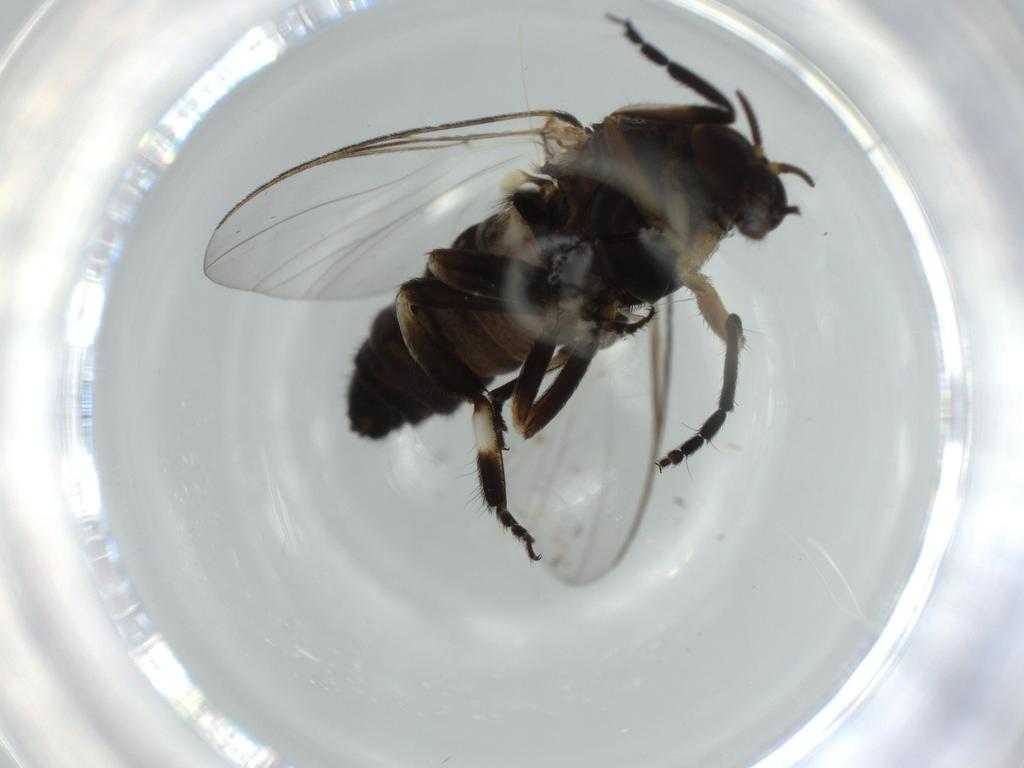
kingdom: Animalia
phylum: Arthropoda
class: Insecta
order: Diptera
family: Psychodidae
